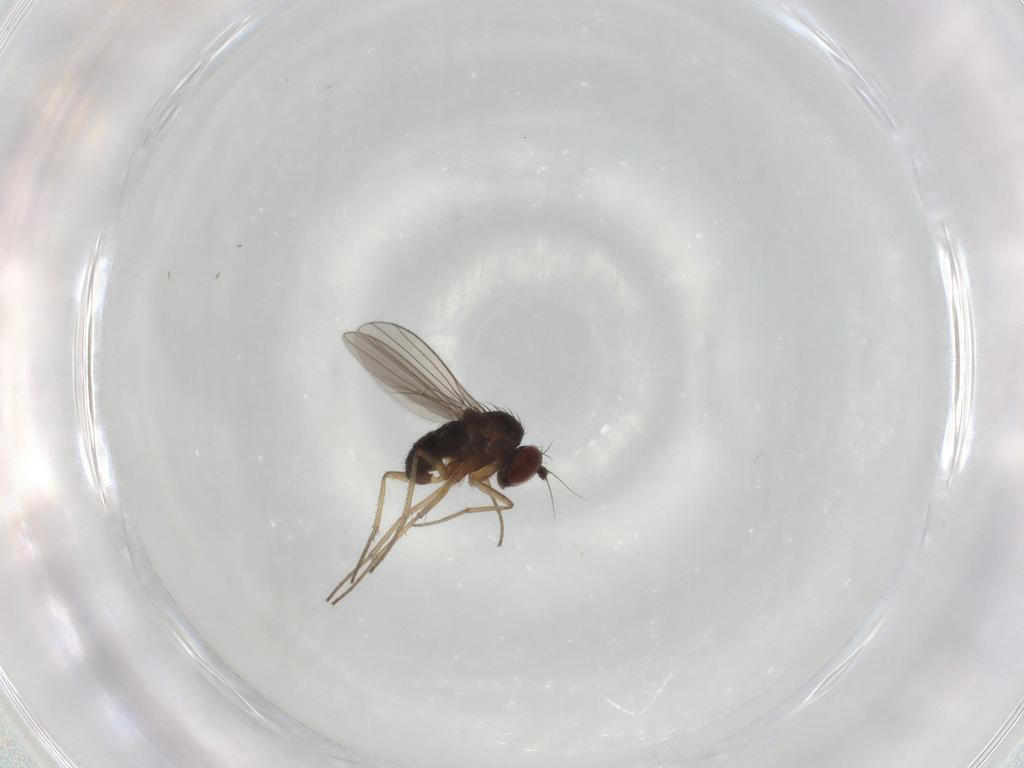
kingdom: Animalia
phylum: Arthropoda
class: Insecta
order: Diptera
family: Dolichopodidae
